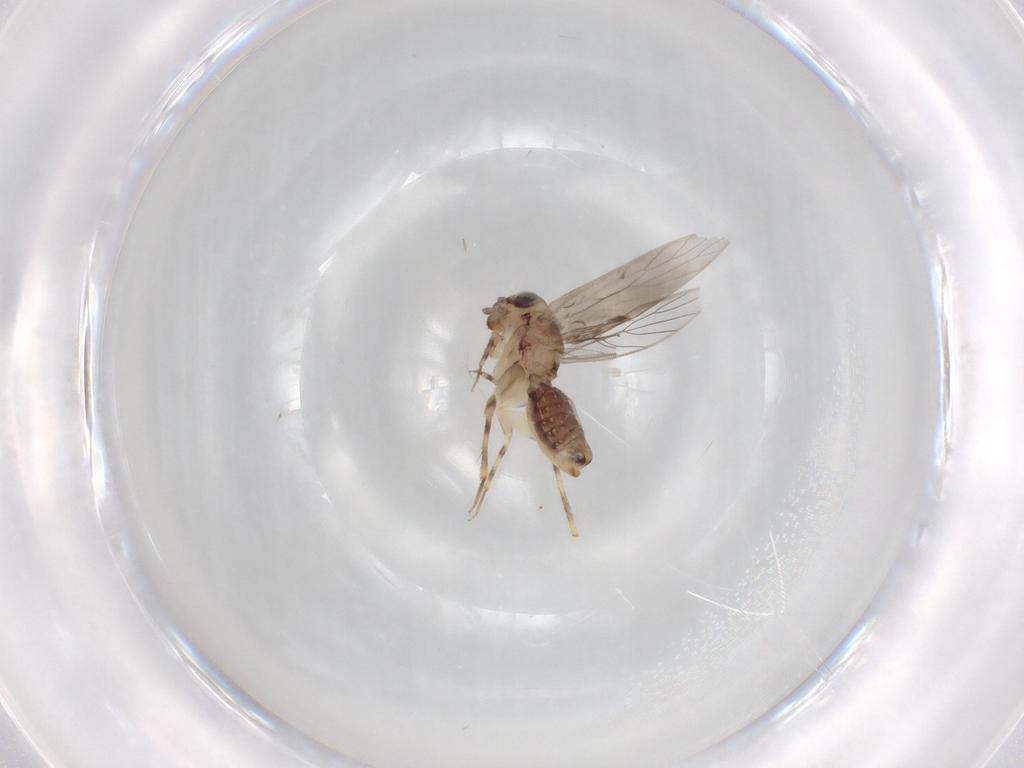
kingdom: Animalia
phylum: Arthropoda
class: Insecta
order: Psocodea
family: Lepidopsocidae
